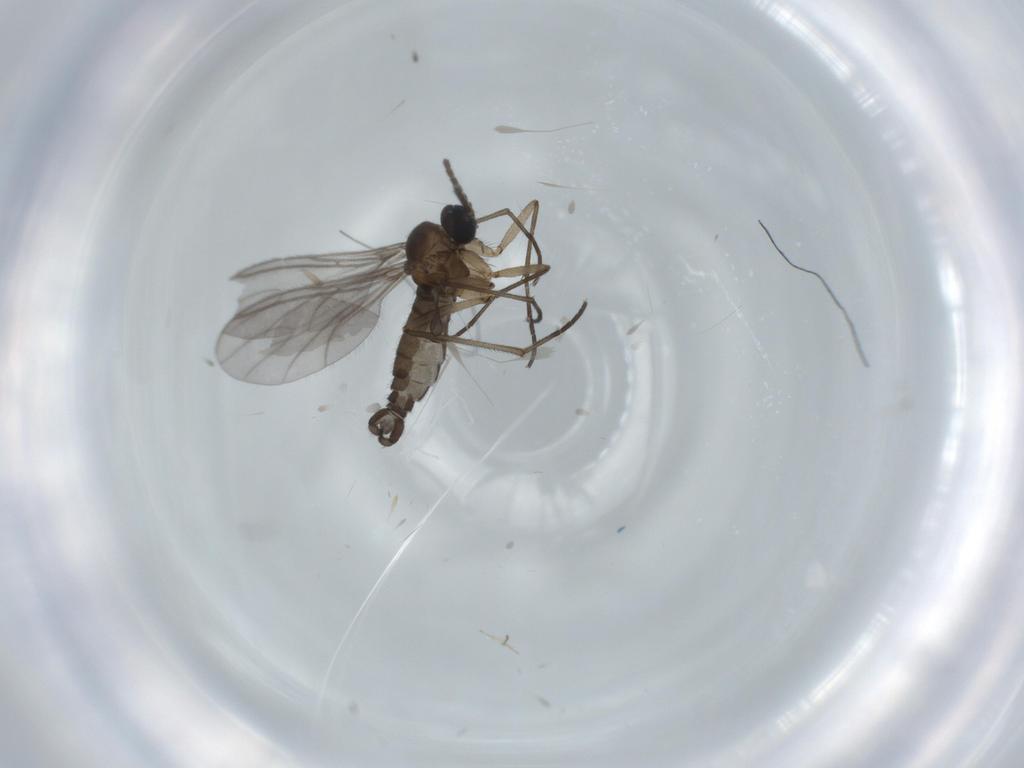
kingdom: Animalia
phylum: Arthropoda
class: Insecta
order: Diptera
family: Sciaridae
